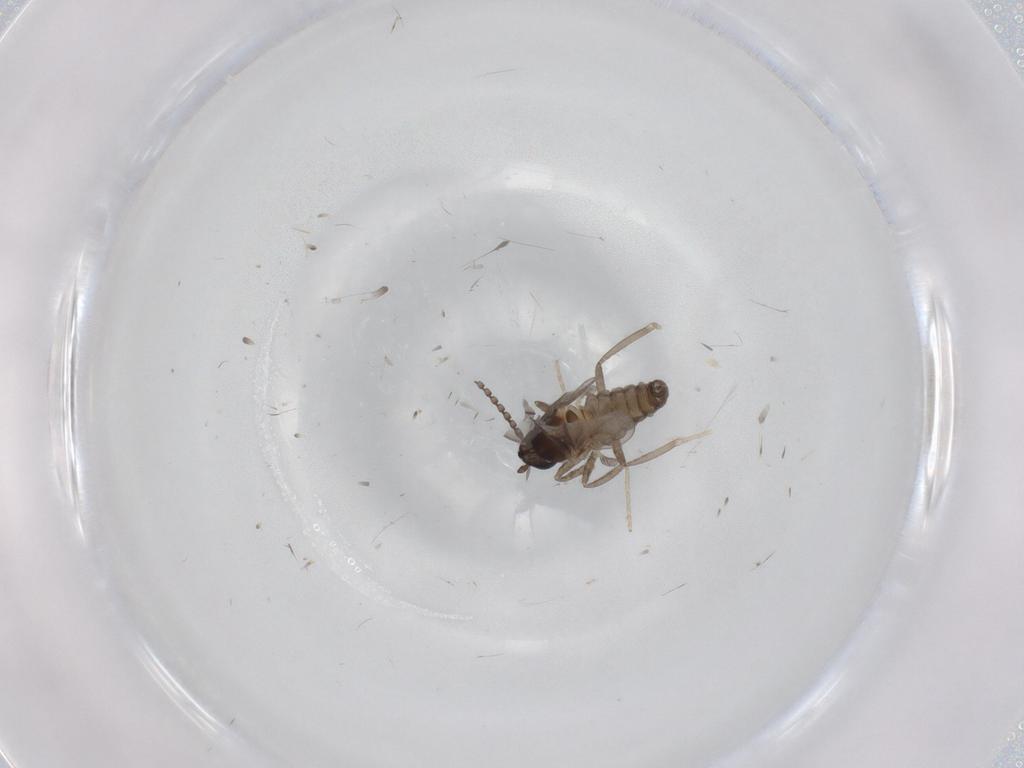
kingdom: Animalia
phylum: Arthropoda
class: Insecta
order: Diptera
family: Cecidomyiidae
